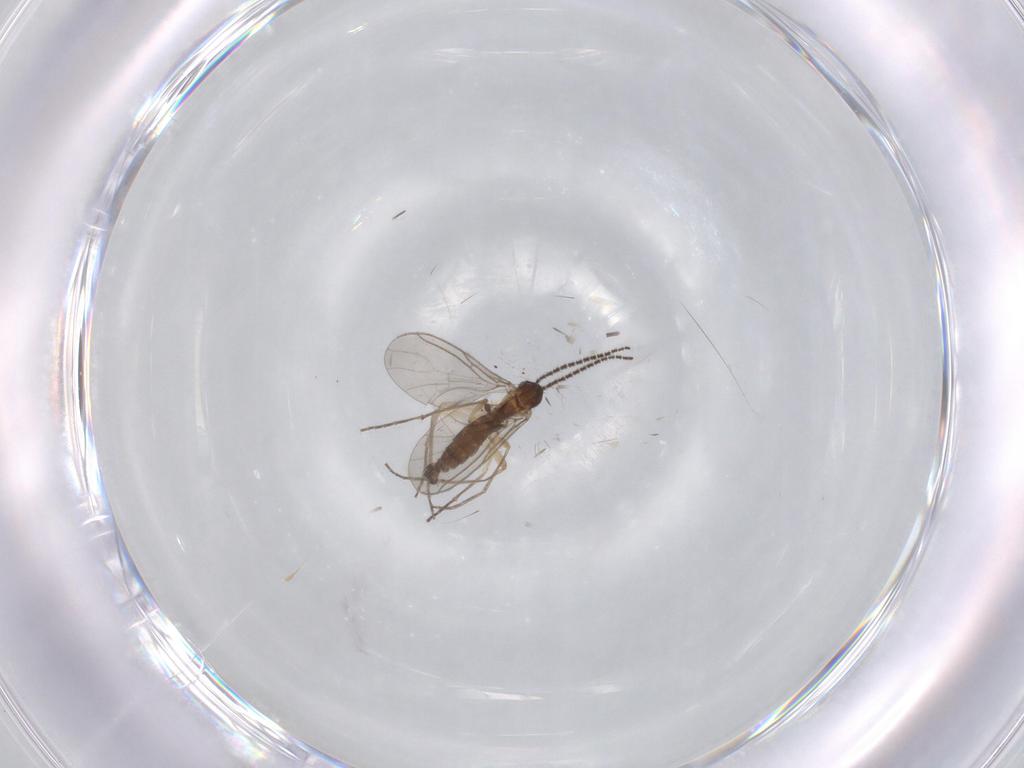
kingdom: Animalia
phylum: Arthropoda
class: Insecta
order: Diptera
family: Sciaridae
